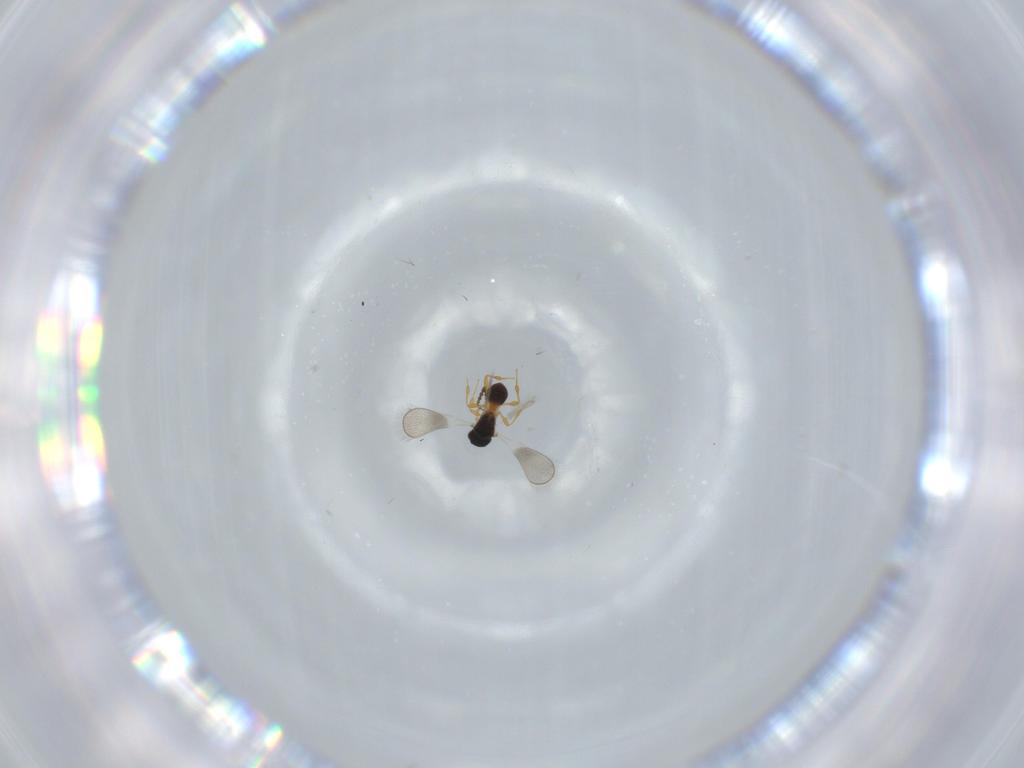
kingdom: Animalia
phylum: Arthropoda
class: Insecta
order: Hymenoptera
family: Platygastridae
